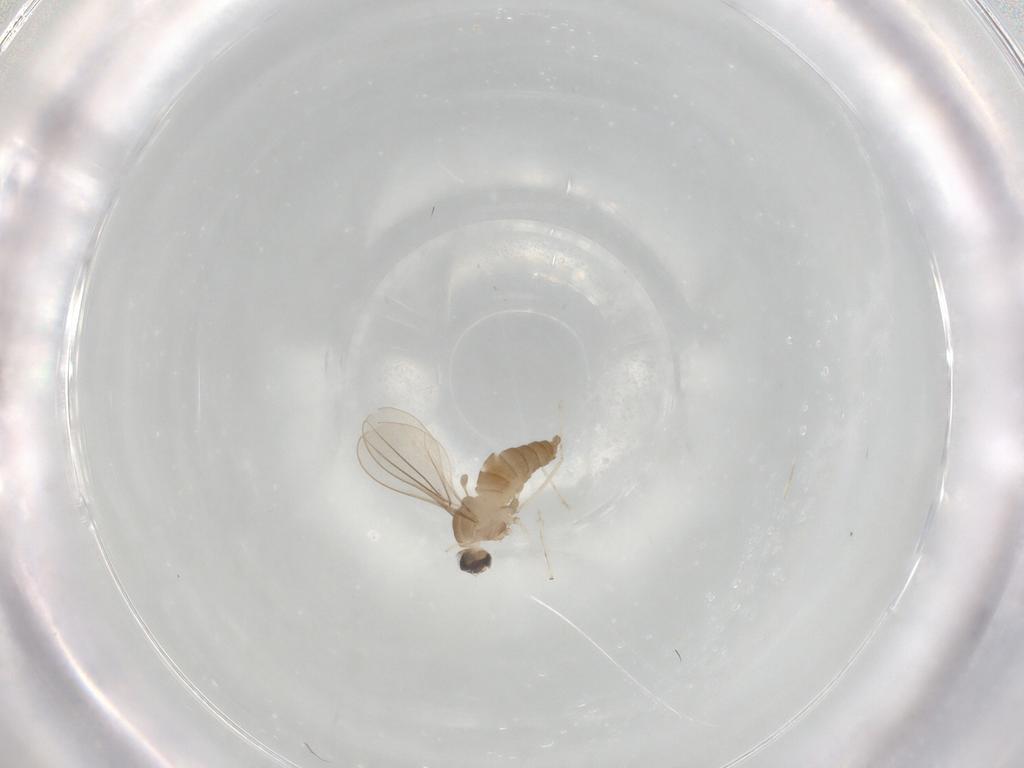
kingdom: Animalia
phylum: Arthropoda
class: Insecta
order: Diptera
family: Cecidomyiidae
